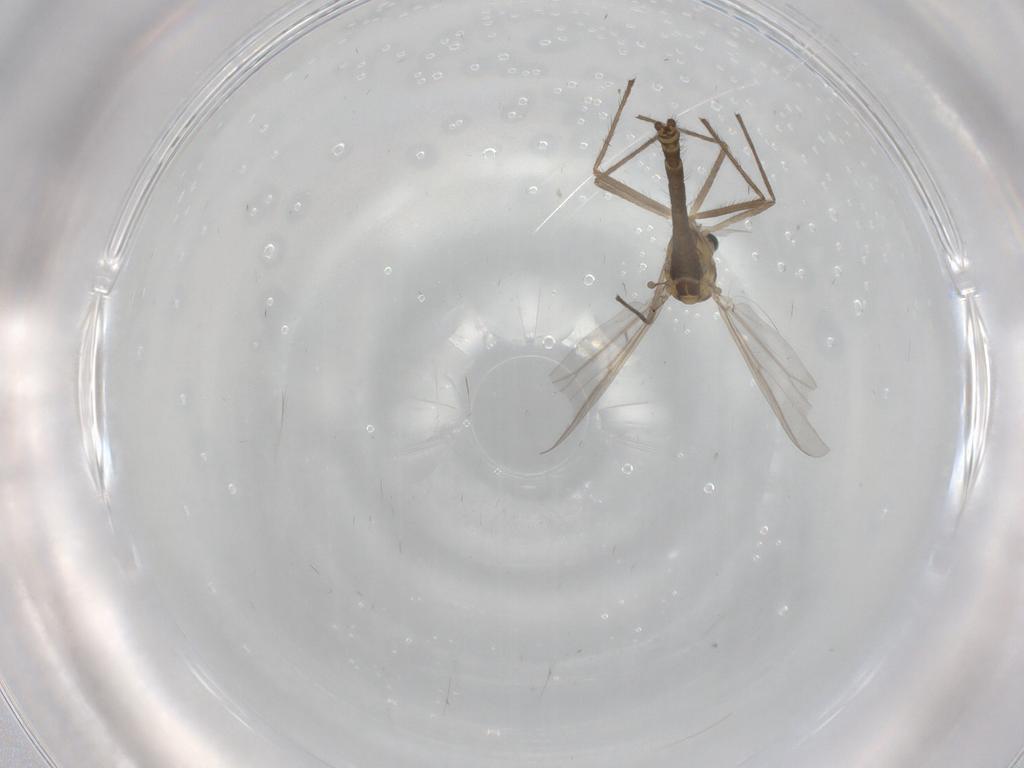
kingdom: Animalia
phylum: Arthropoda
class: Insecta
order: Diptera
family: Chironomidae
